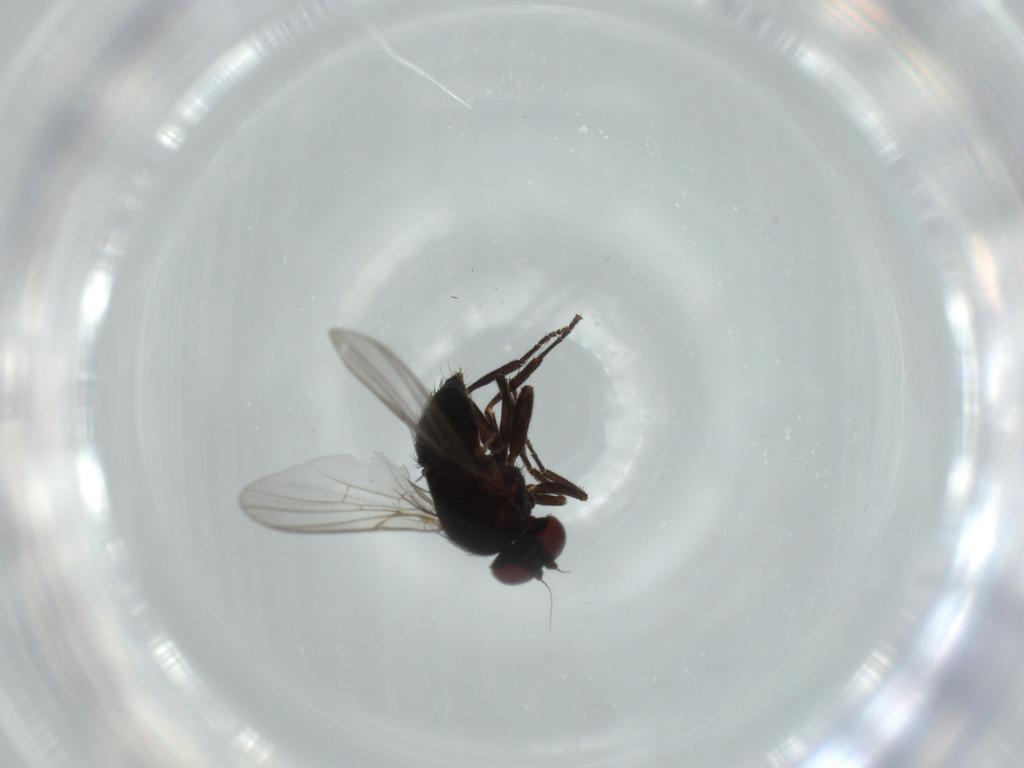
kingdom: Animalia
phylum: Arthropoda
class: Insecta
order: Diptera
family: Agromyzidae
